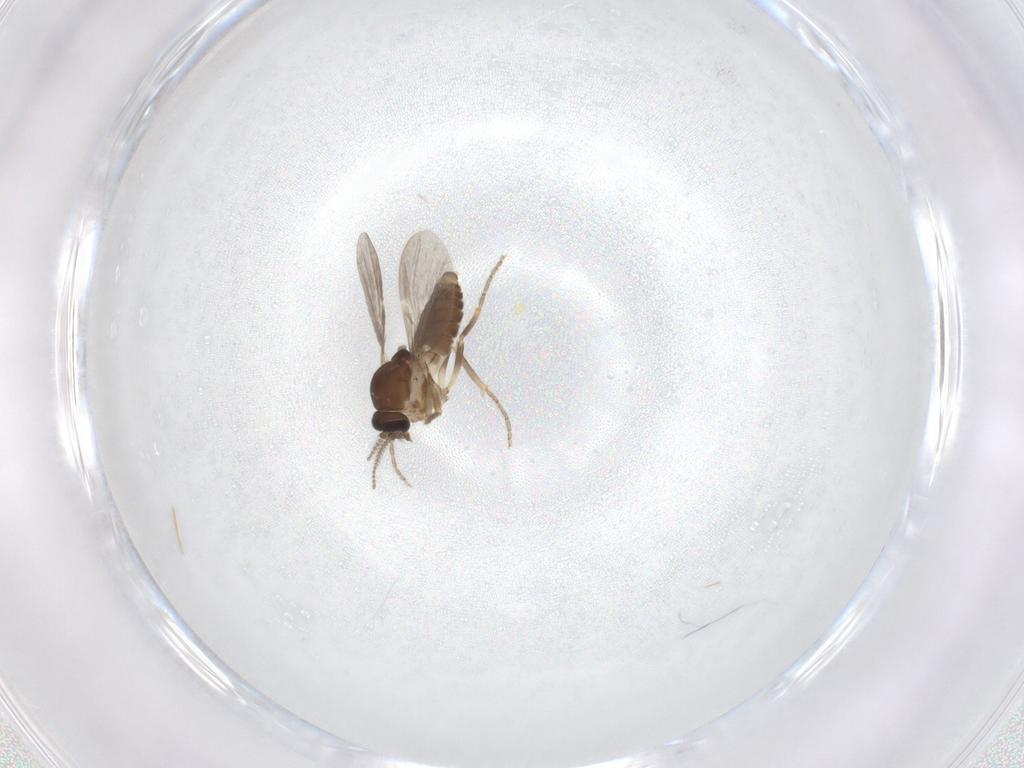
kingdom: Animalia
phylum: Arthropoda
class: Insecta
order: Diptera
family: Ceratopogonidae
